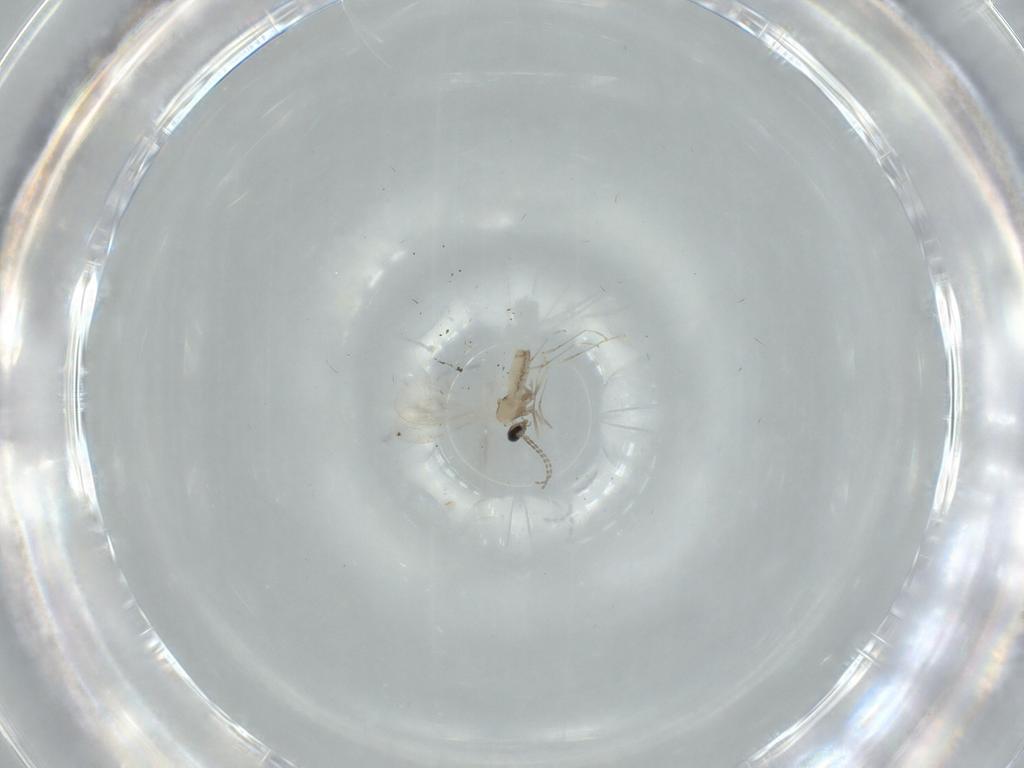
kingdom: Animalia
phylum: Arthropoda
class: Insecta
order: Diptera
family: Cecidomyiidae
